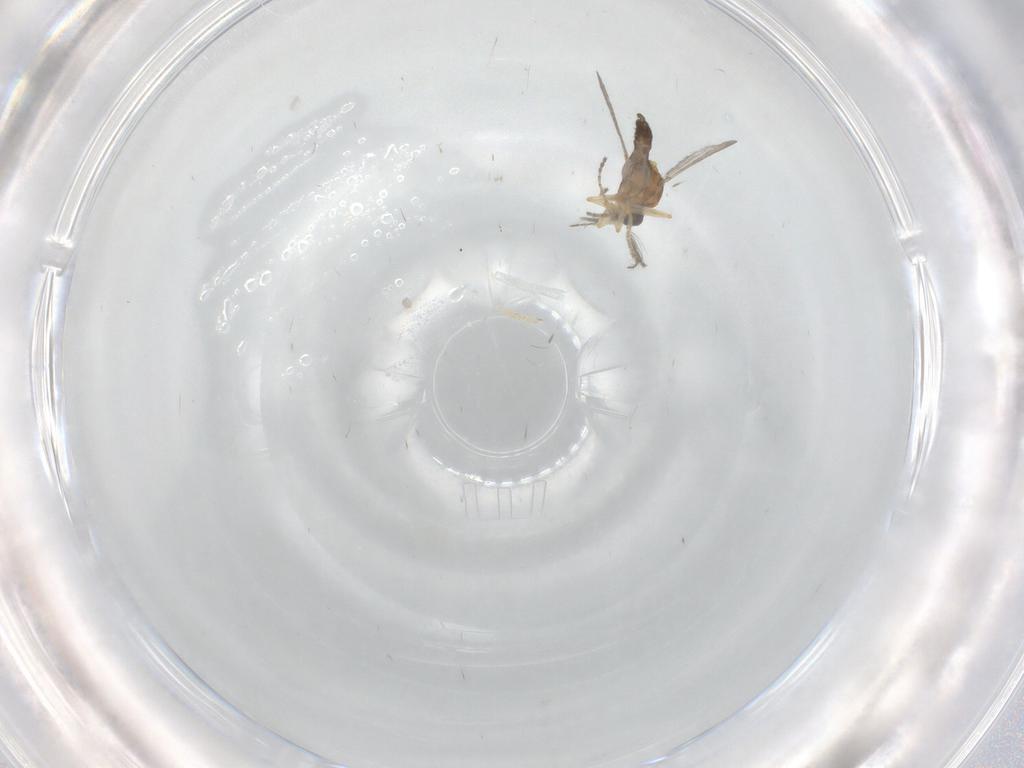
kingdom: Animalia
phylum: Arthropoda
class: Insecta
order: Diptera
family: Ceratopogonidae
